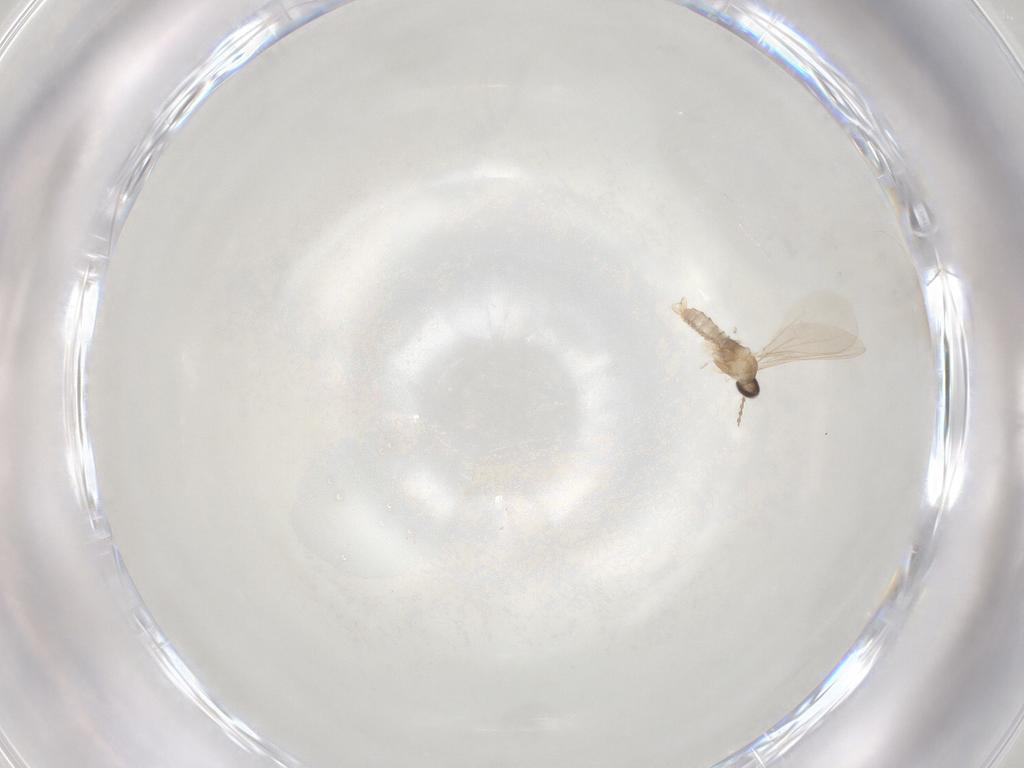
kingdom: Animalia
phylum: Arthropoda
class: Insecta
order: Diptera
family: Cecidomyiidae
